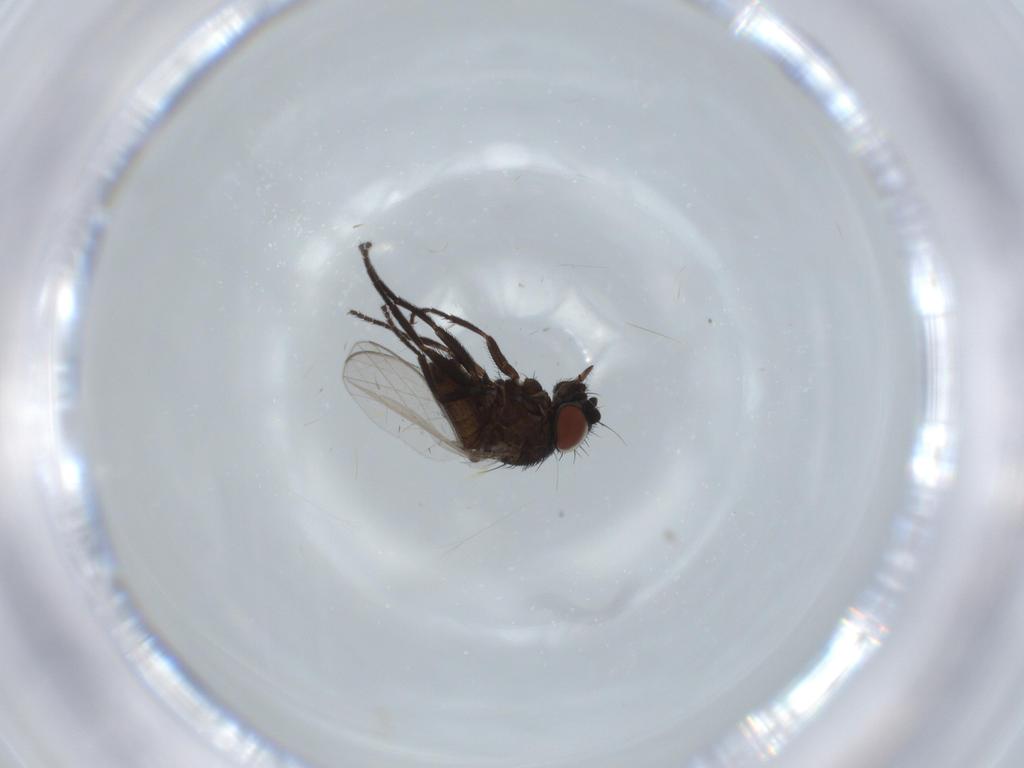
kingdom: Animalia
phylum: Arthropoda
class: Insecta
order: Diptera
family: Milichiidae
